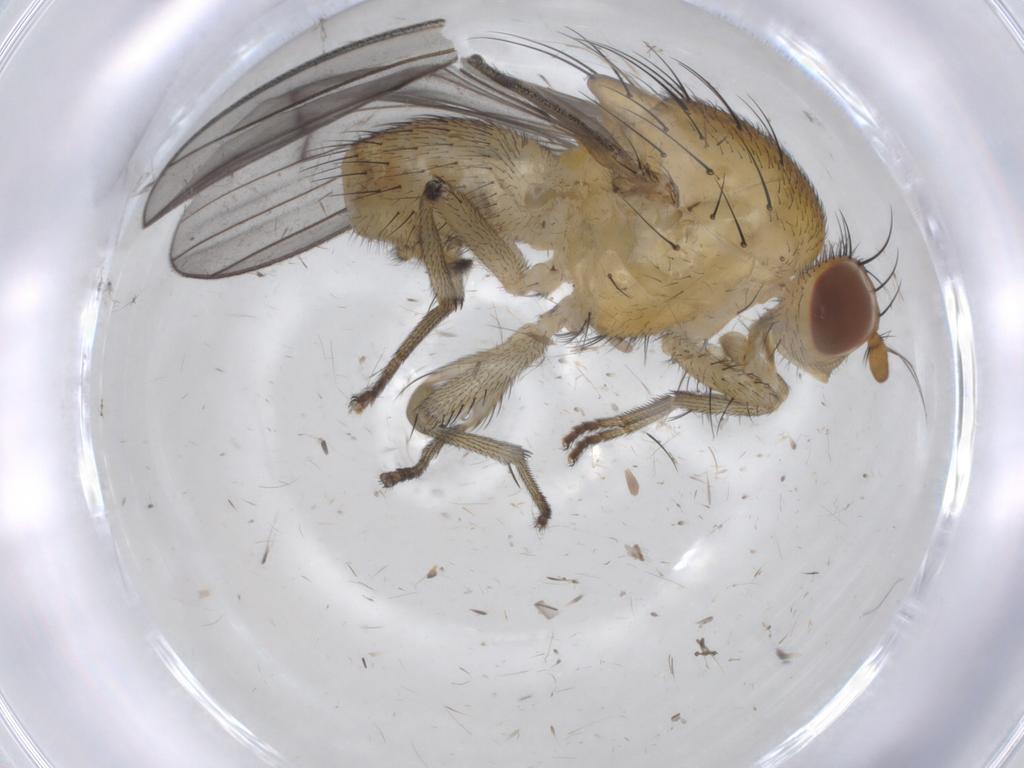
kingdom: Animalia
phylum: Arthropoda
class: Insecta
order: Diptera
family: Lauxaniidae
